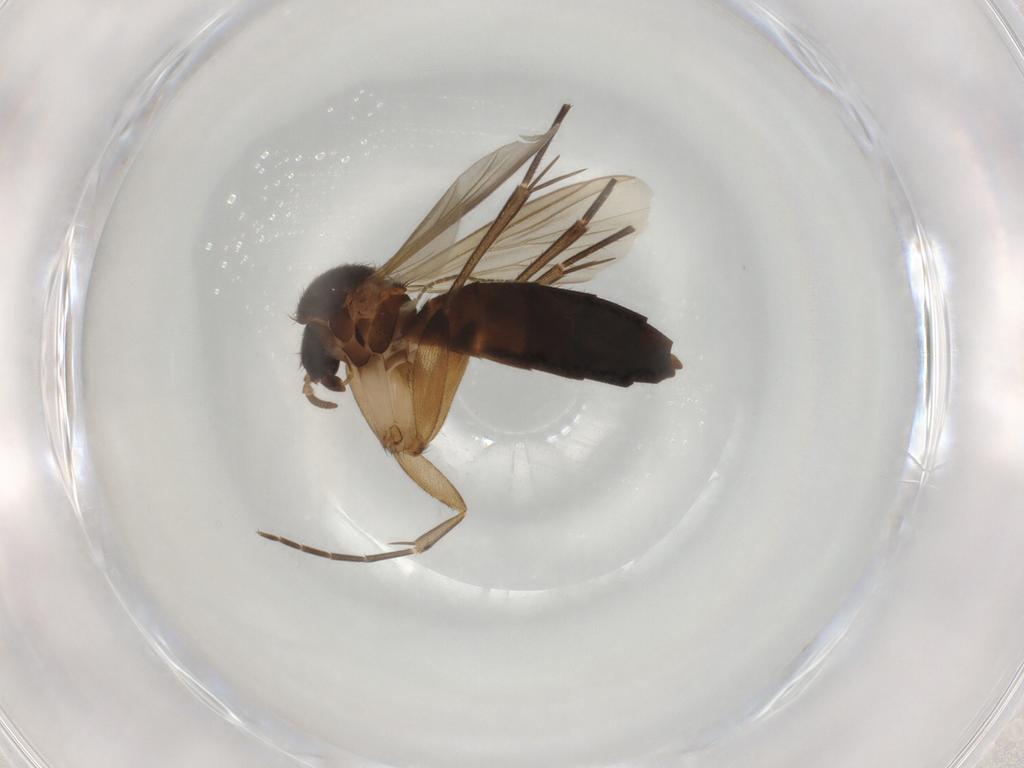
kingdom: Animalia
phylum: Arthropoda
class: Insecta
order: Diptera
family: Mycetophilidae
